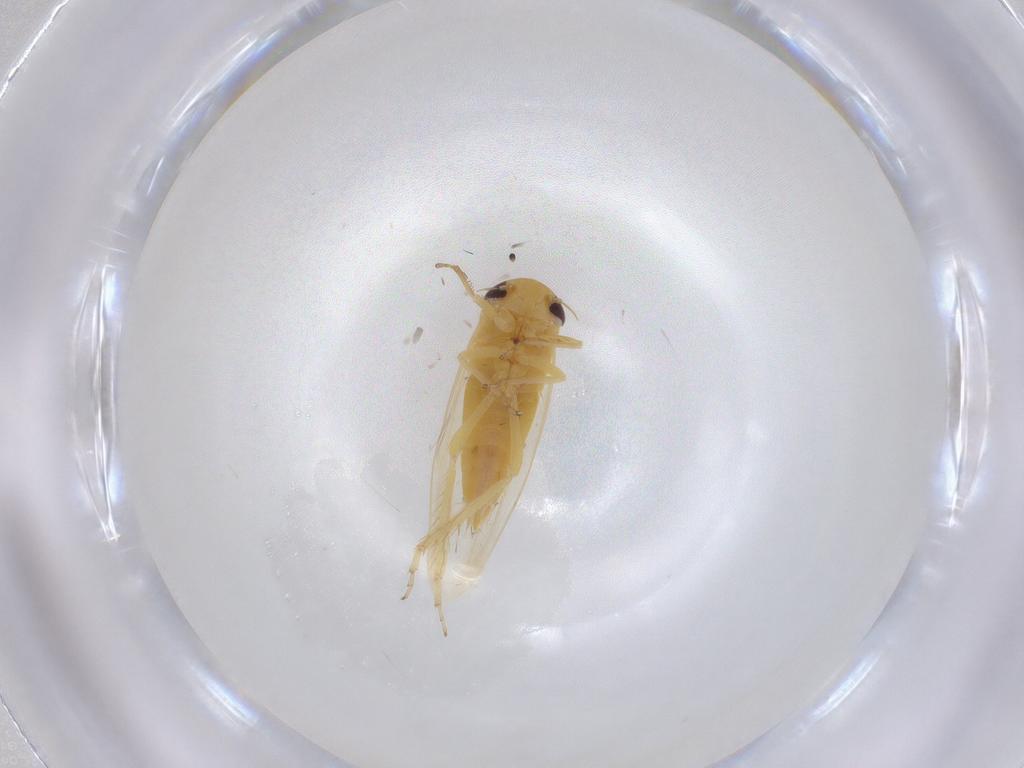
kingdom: Animalia
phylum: Arthropoda
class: Insecta
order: Hemiptera
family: Cicadellidae
